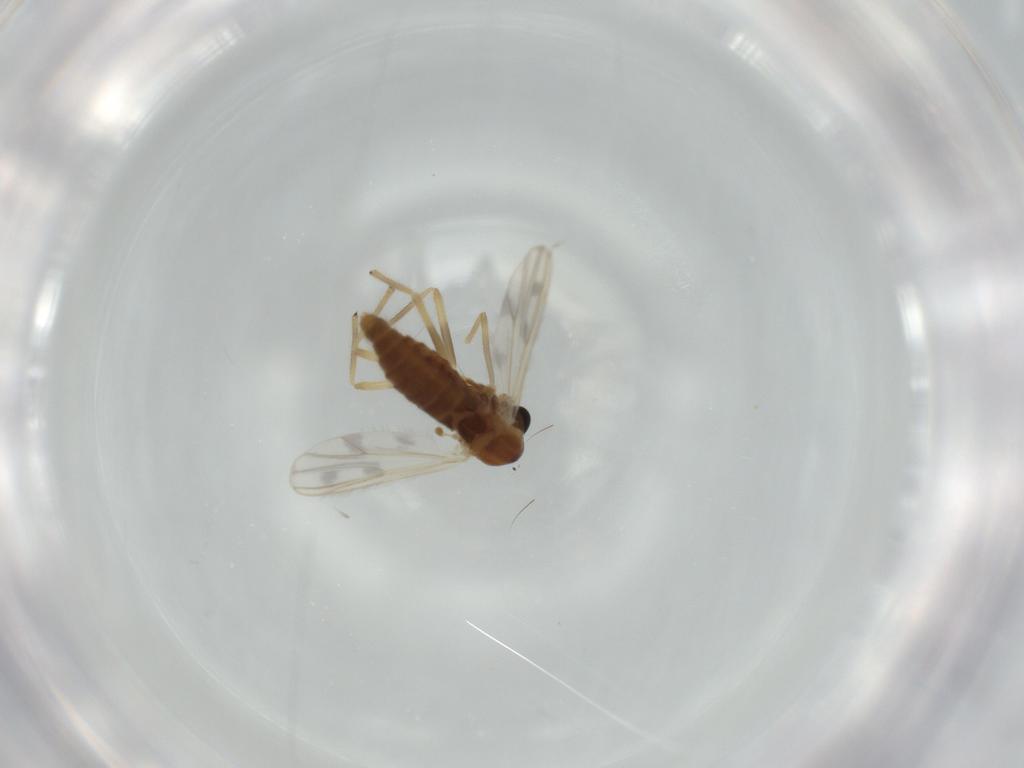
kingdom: Animalia
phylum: Arthropoda
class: Insecta
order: Diptera
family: Chironomidae
